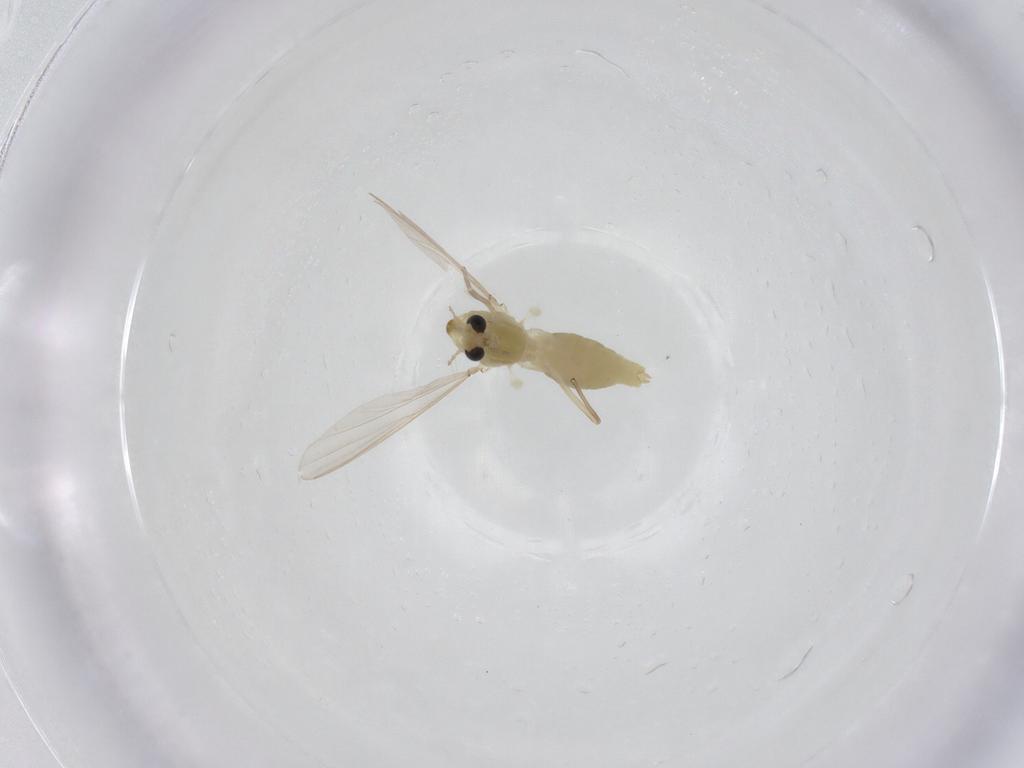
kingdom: Animalia
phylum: Arthropoda
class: Insecta
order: Diptera
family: Chironomidae
